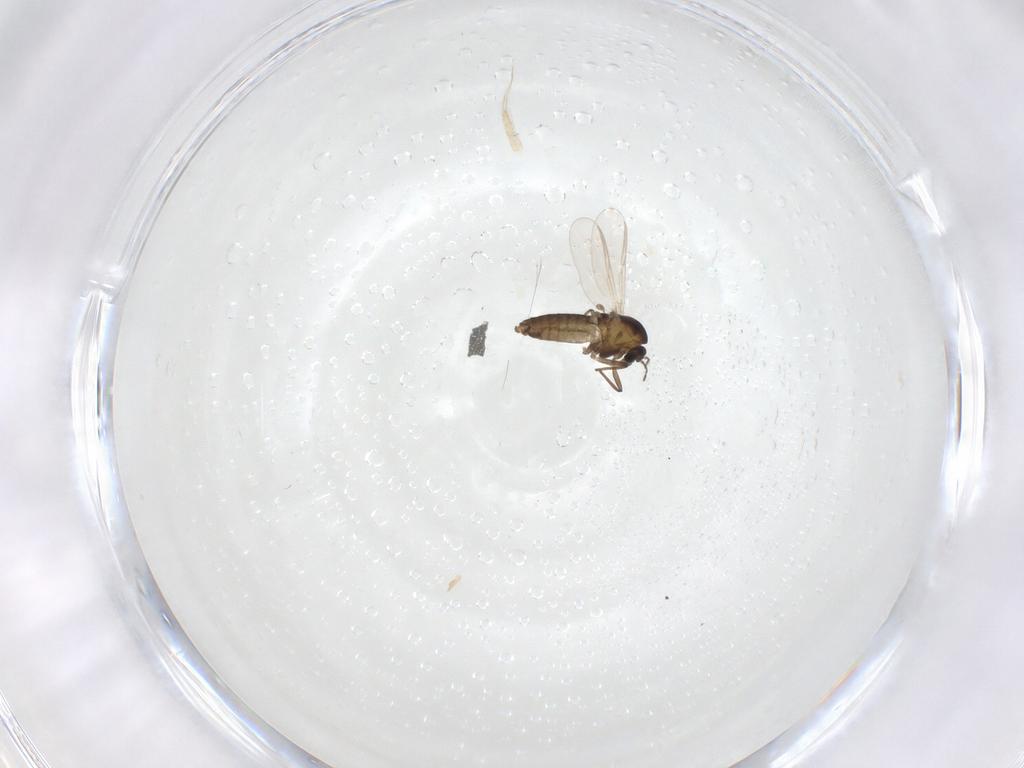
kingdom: Animalia
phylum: Arthropoda
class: Insecta
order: Diptera
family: Chironomidae
